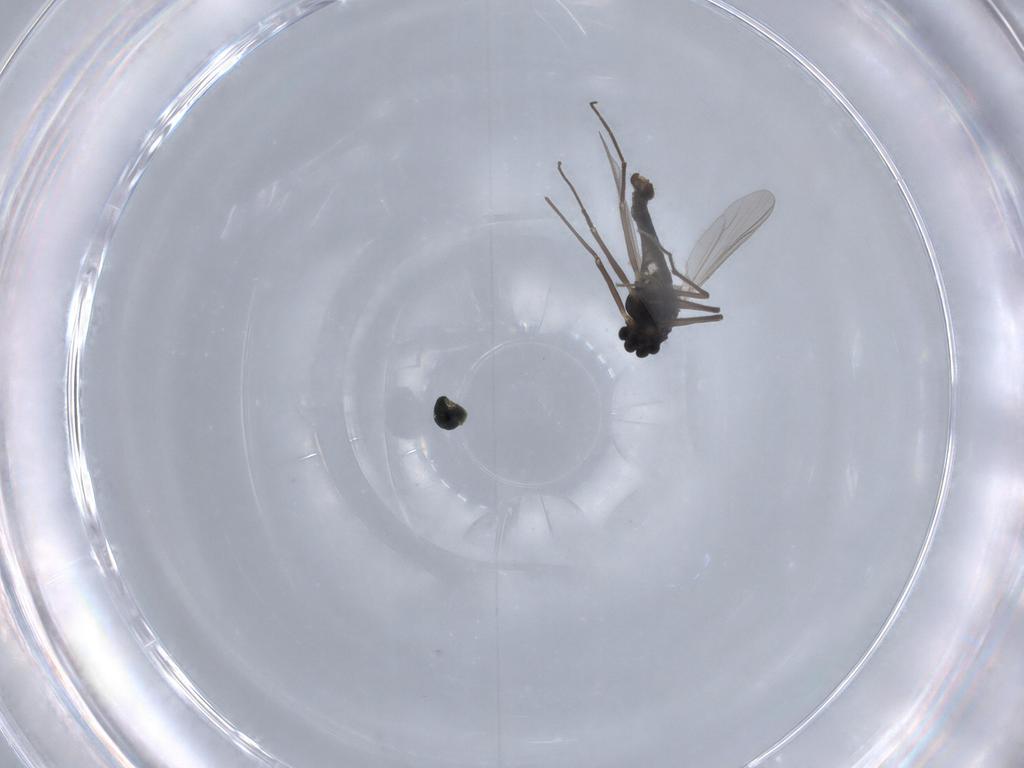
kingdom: Animalia
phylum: Arthropoda
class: Insecta
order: Diptera
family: Chironomidae
